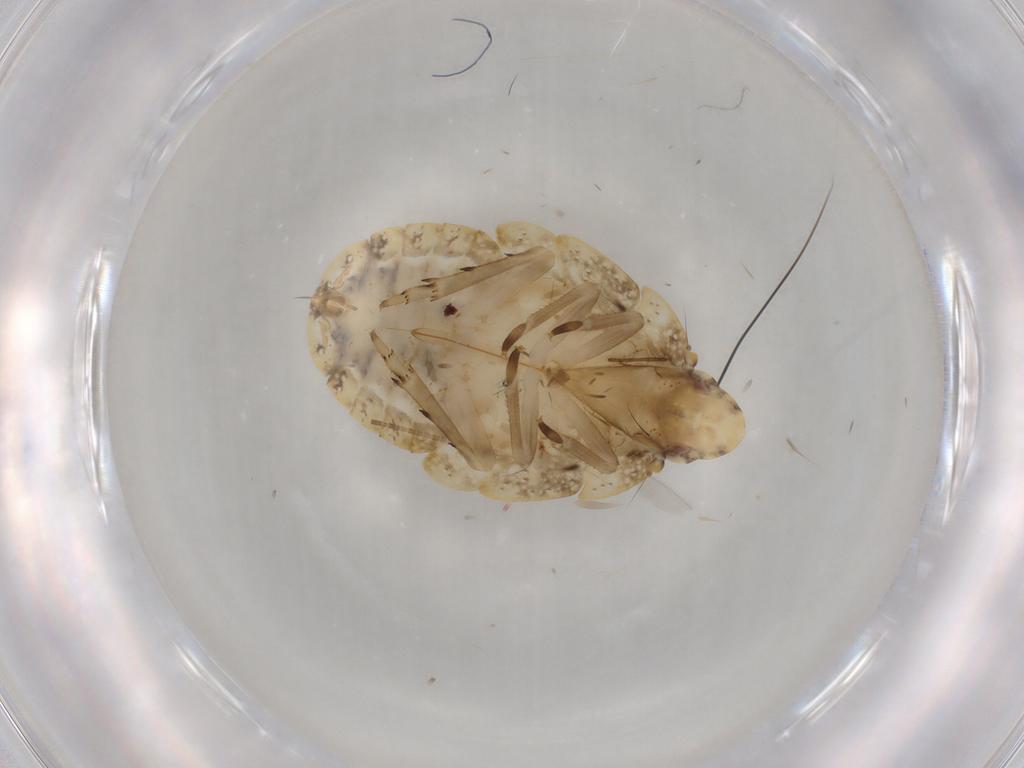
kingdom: Animalia
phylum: Arthropoda
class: Insecta
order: Hemiptera
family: Flatidae
